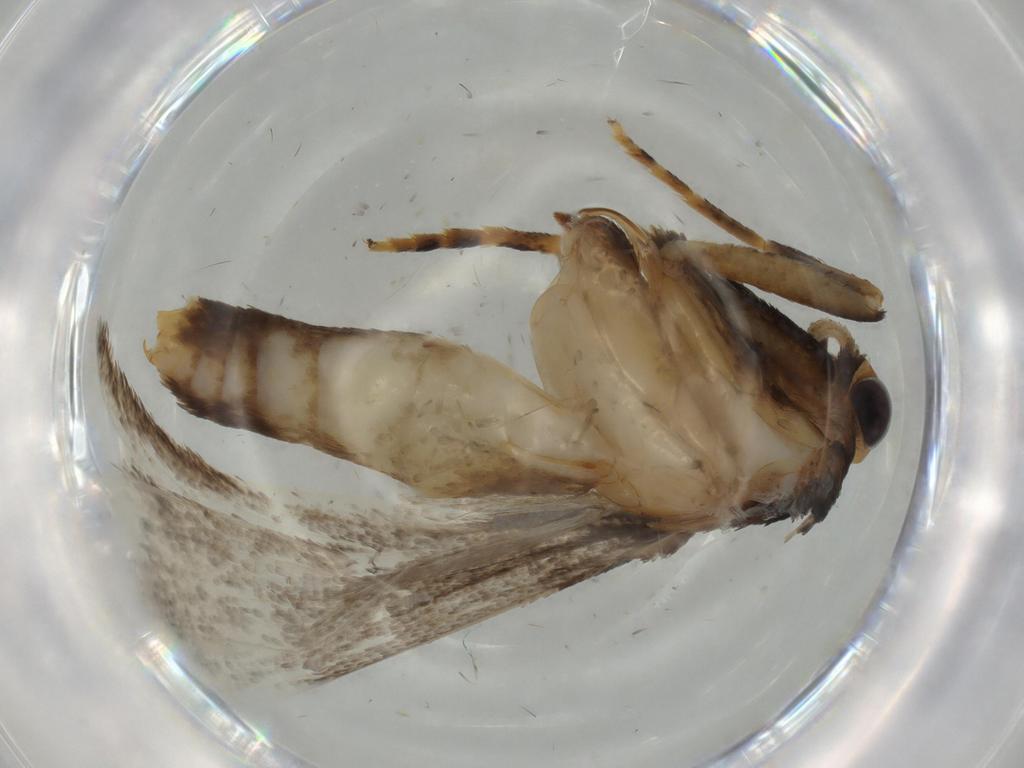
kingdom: Animalia
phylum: Arthropoda
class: Insecta
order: Lepidoptera
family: Oecophoridae
